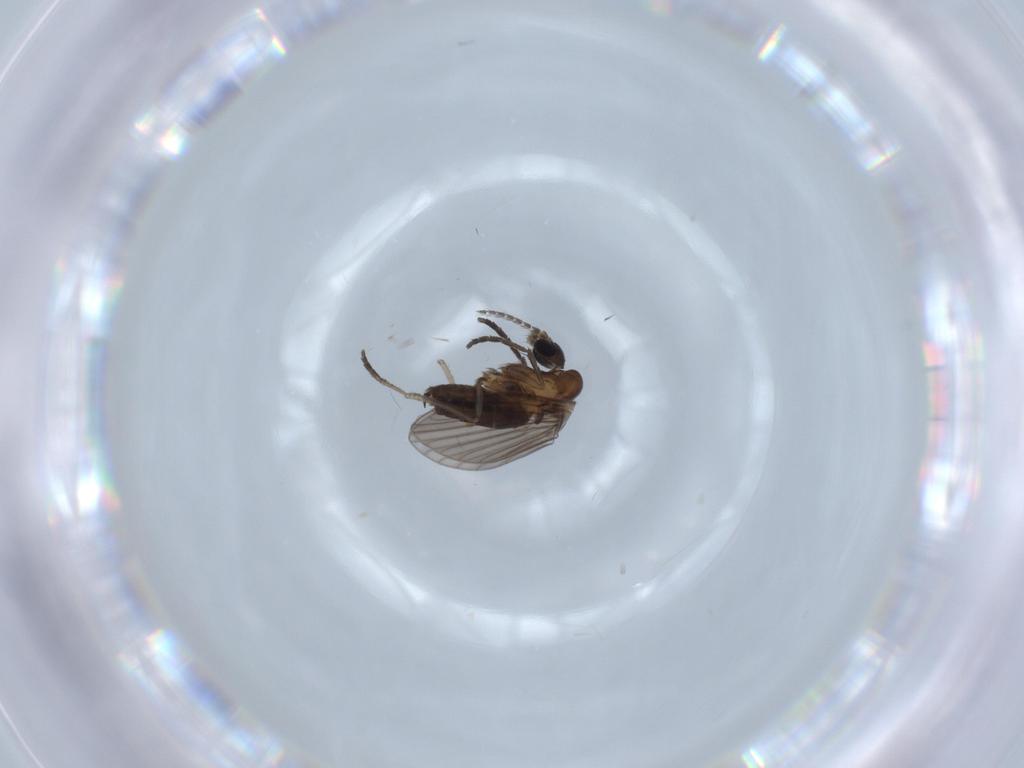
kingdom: Animalia
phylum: Arthropoda
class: Insecta
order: Diptera
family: Psychodidae
